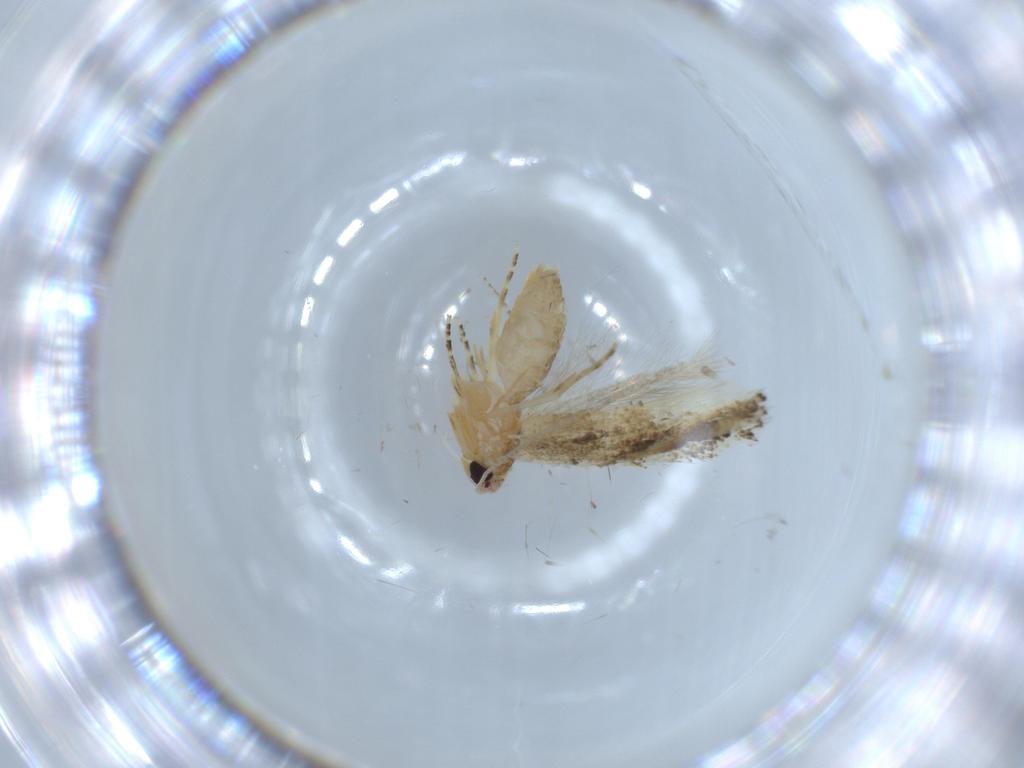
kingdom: Animalia
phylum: Arthropoda
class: Insecta
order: Lepidoptera
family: Bucculatricidae
